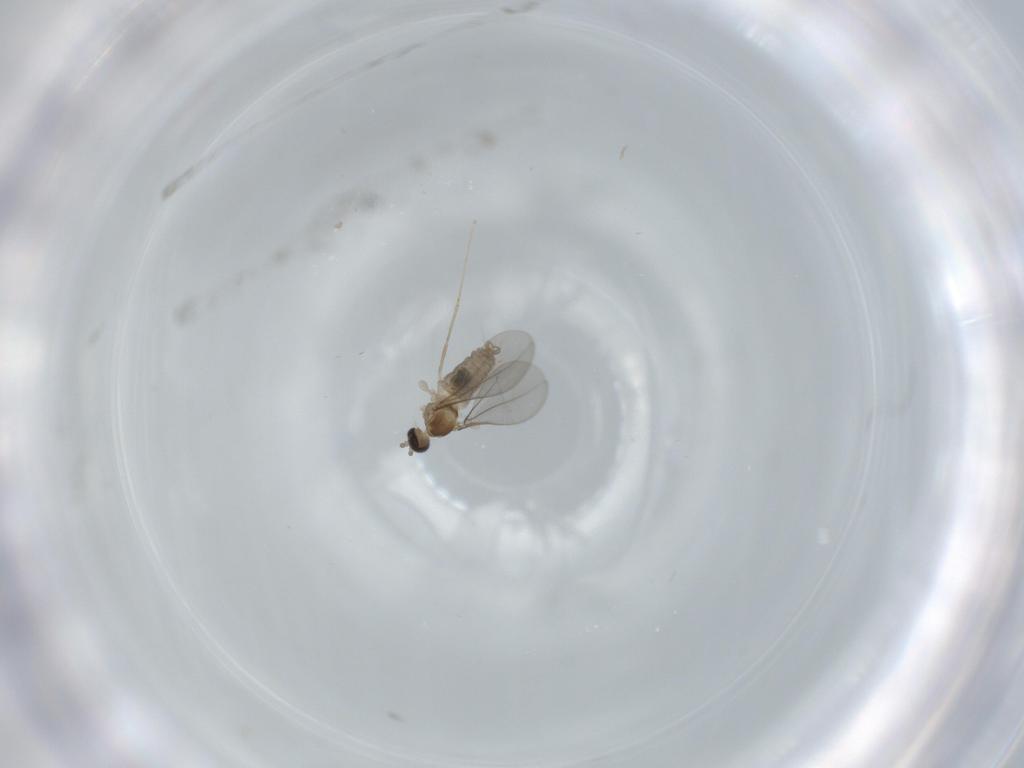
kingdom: Animalia
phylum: Arthropoda
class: Insecta
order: Diptera
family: Cecidomyiidae
